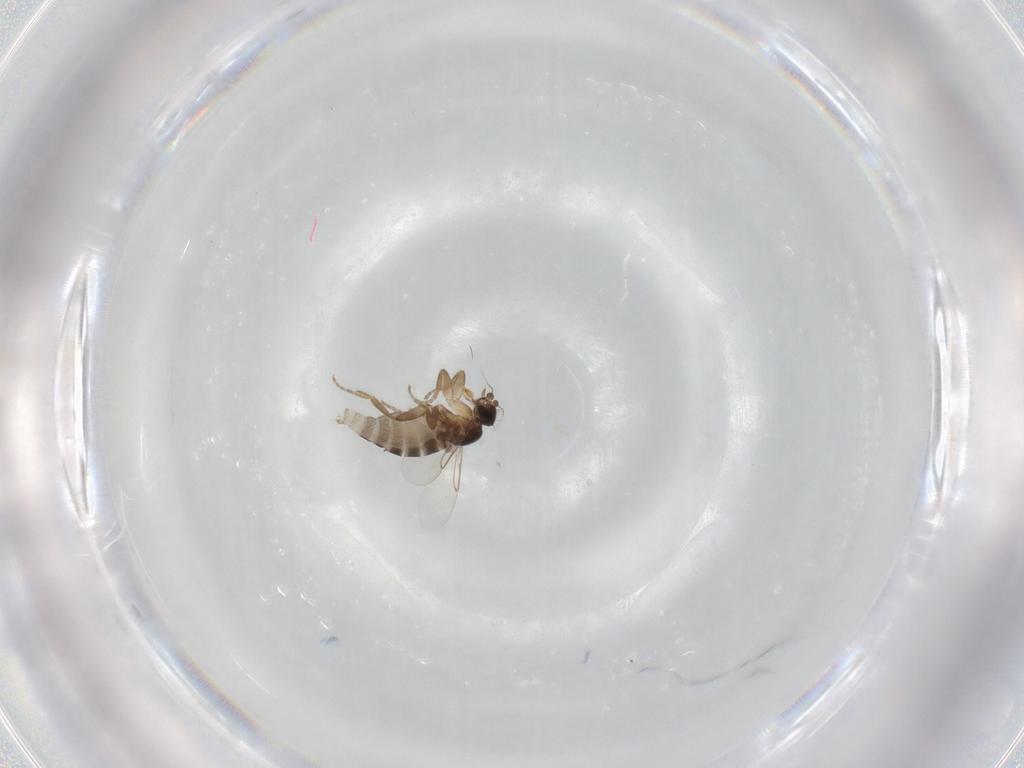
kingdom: Animalia
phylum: Arthropoda
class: Insecta
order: Diptera
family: Phoridae
